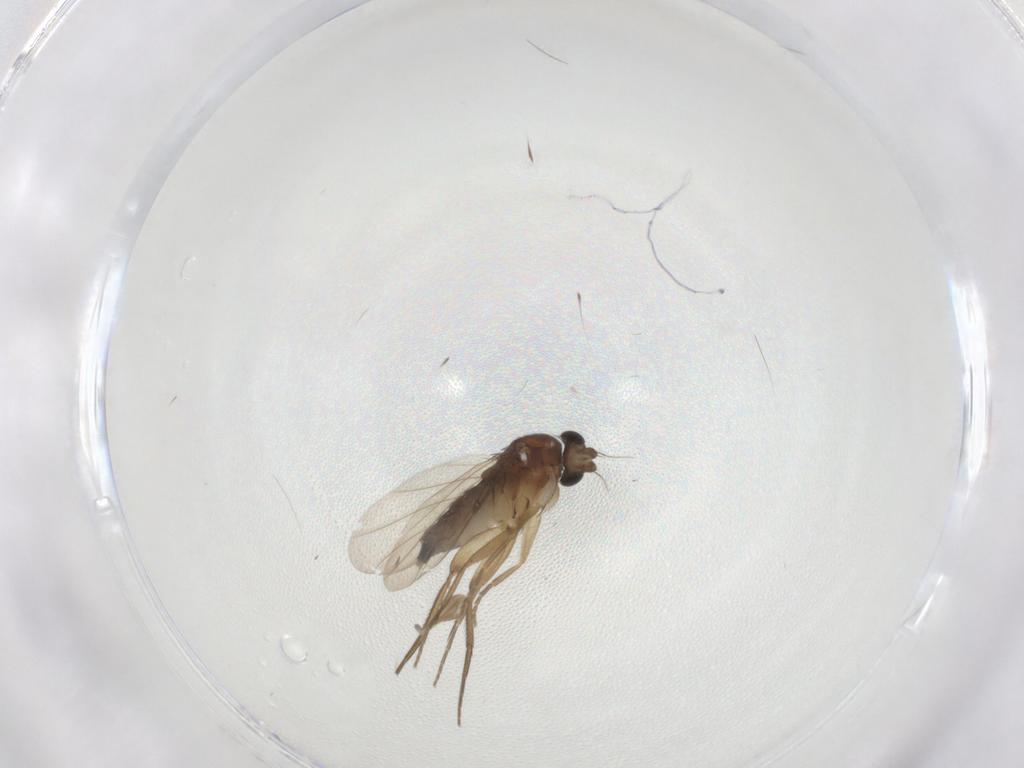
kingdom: Animalia
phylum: Arthropoda
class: Insecta
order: Diptera
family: Phoridae
